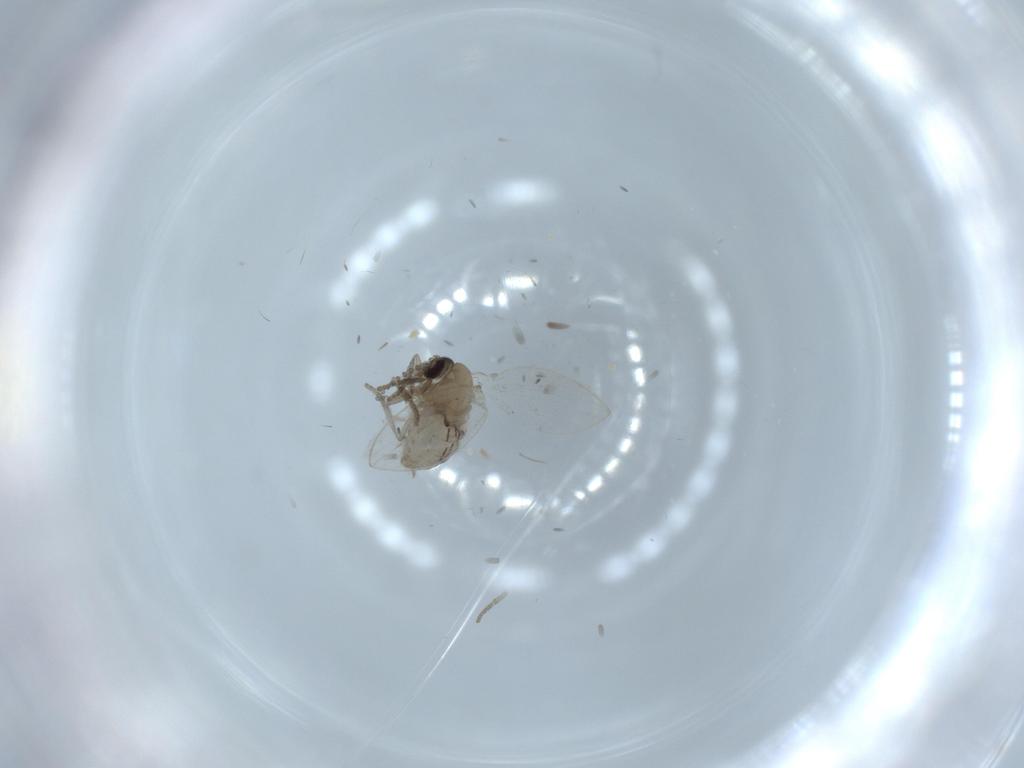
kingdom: Animalia
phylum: Arthropoda
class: Insecta
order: Diptera
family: Psychodidae
